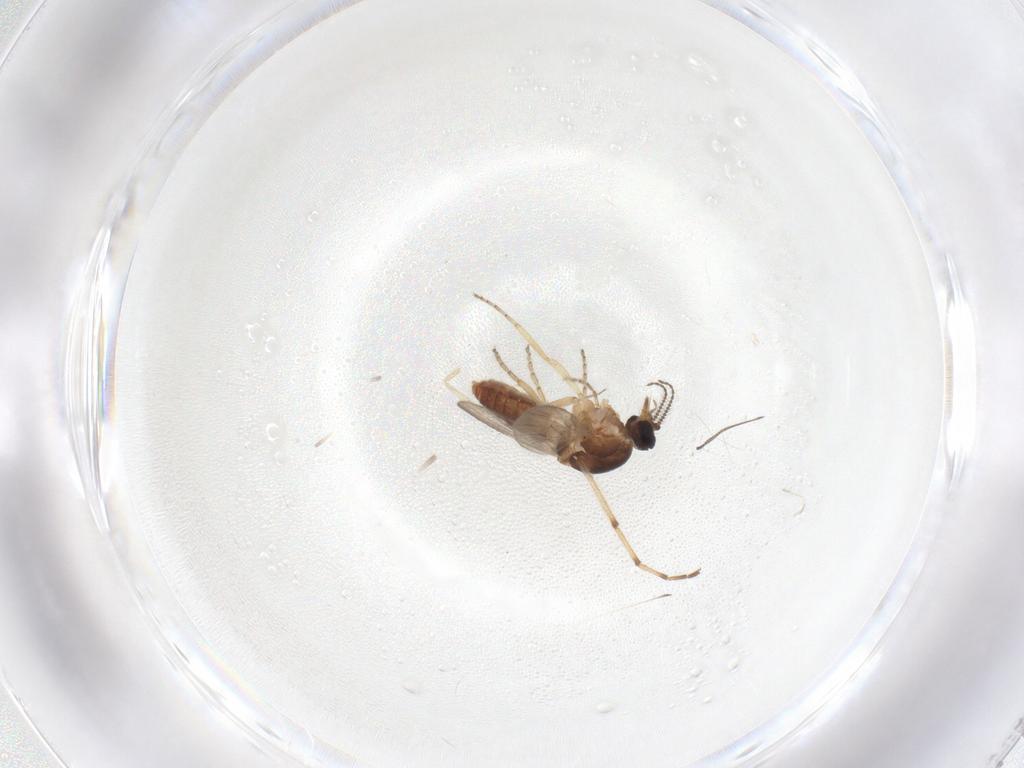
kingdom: Animalia
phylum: Arthropoda
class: Insecta
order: Diptera
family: Ceratopogonidae
